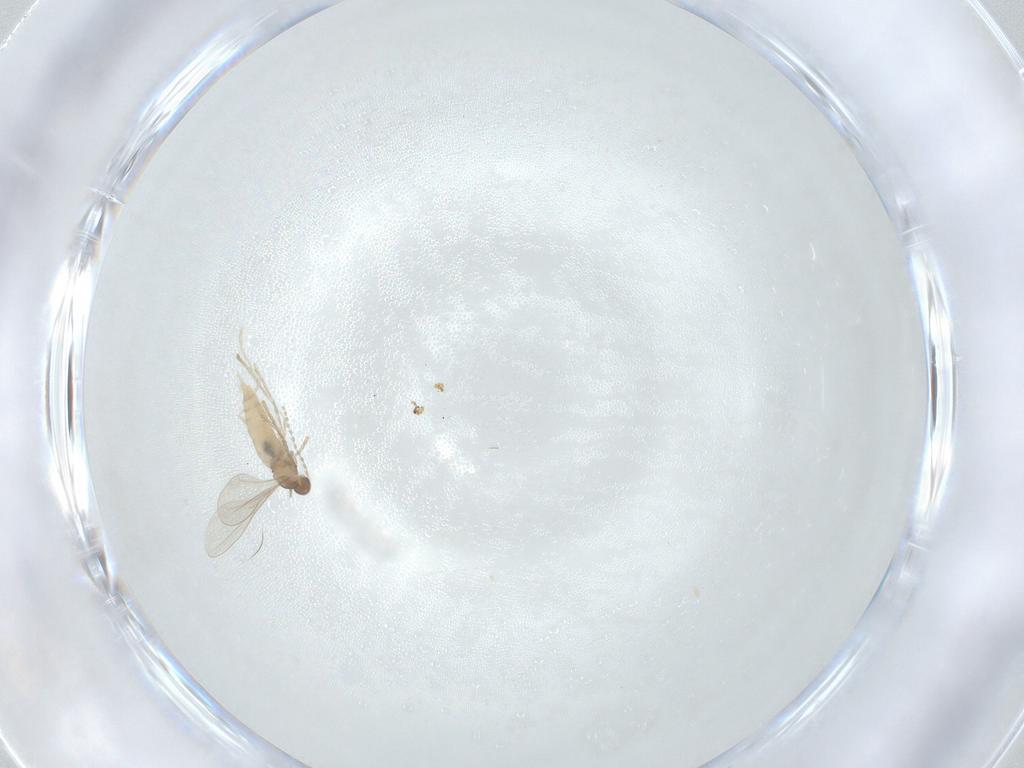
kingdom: Animalia
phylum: Arthropoda
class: Insecta
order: Diptera
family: Cecidomyiidae
